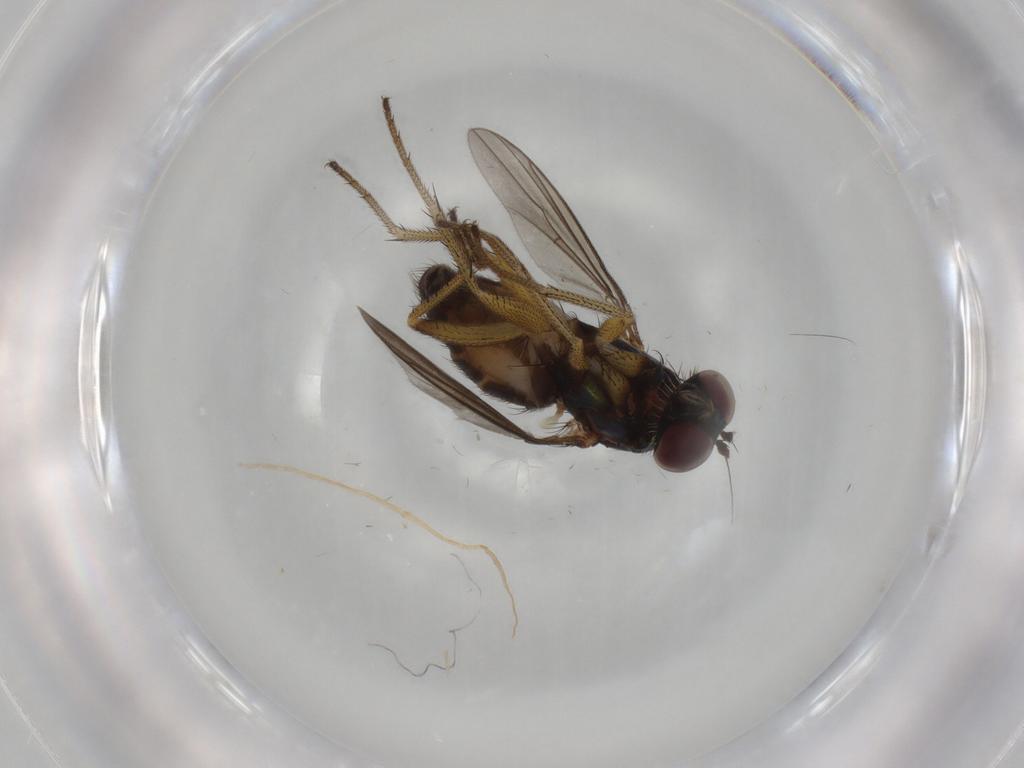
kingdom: Animalia
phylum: Arthropoda
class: Insecta
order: Diptera
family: Dolichopodidae
